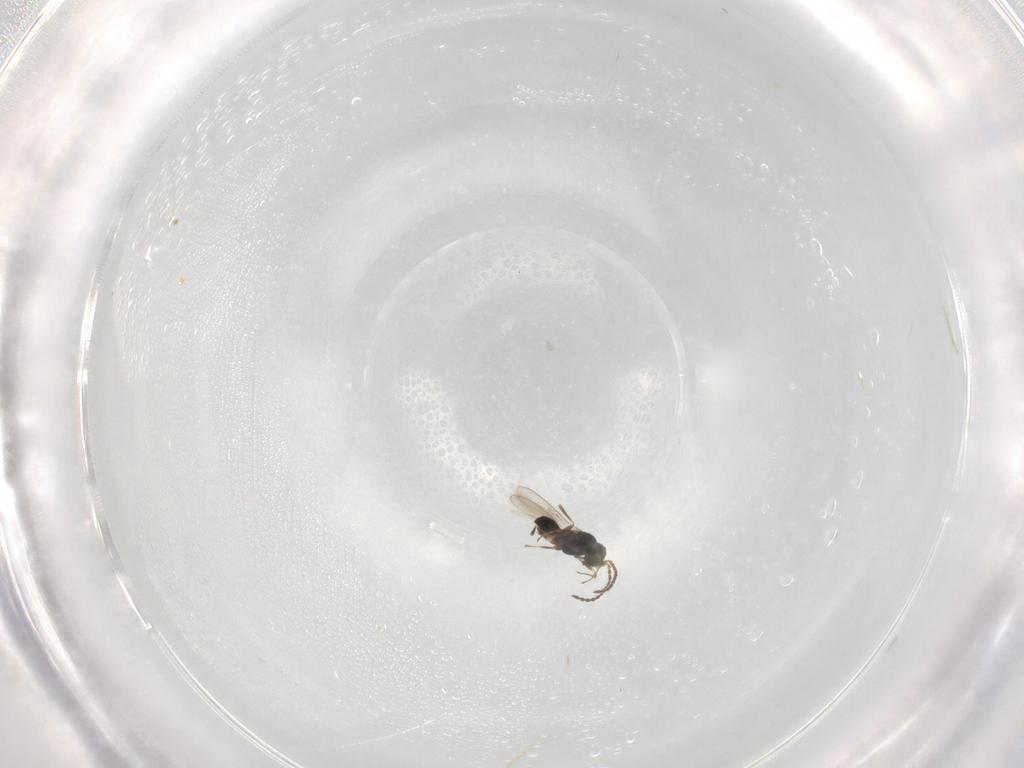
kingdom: Animalia
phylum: Arthropoda
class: Insecta
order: Hymenoptera
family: Scelionidae
